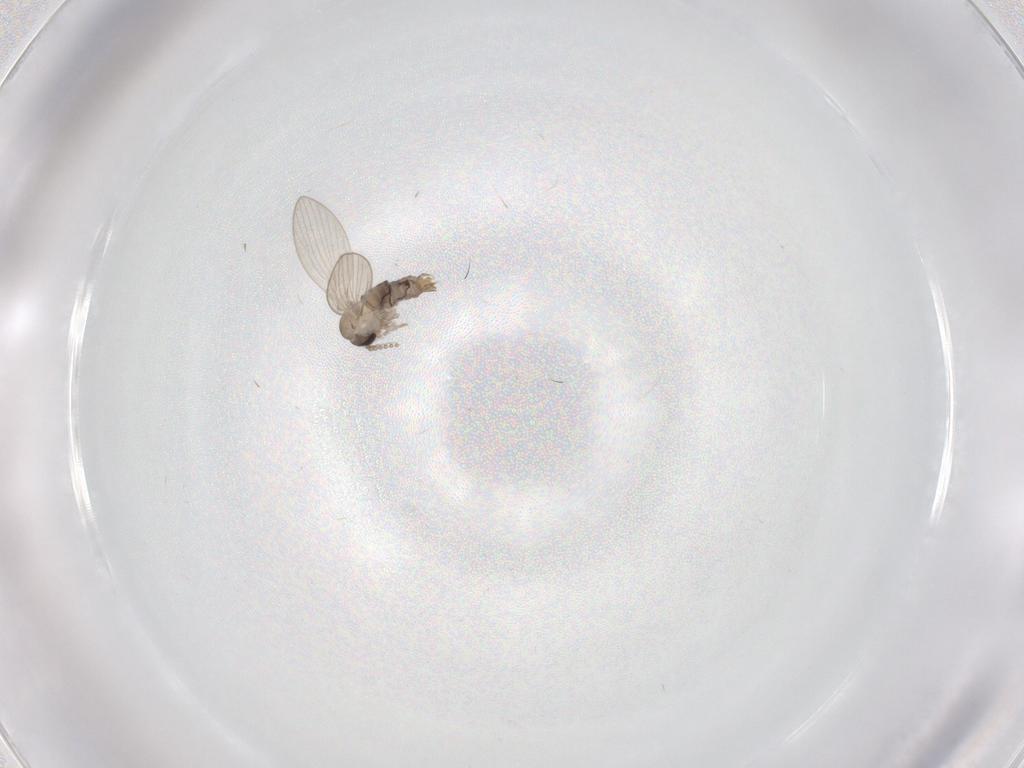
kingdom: Animalia
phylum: Arthropoda
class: Insecta
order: Diptera
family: Psychodidae
